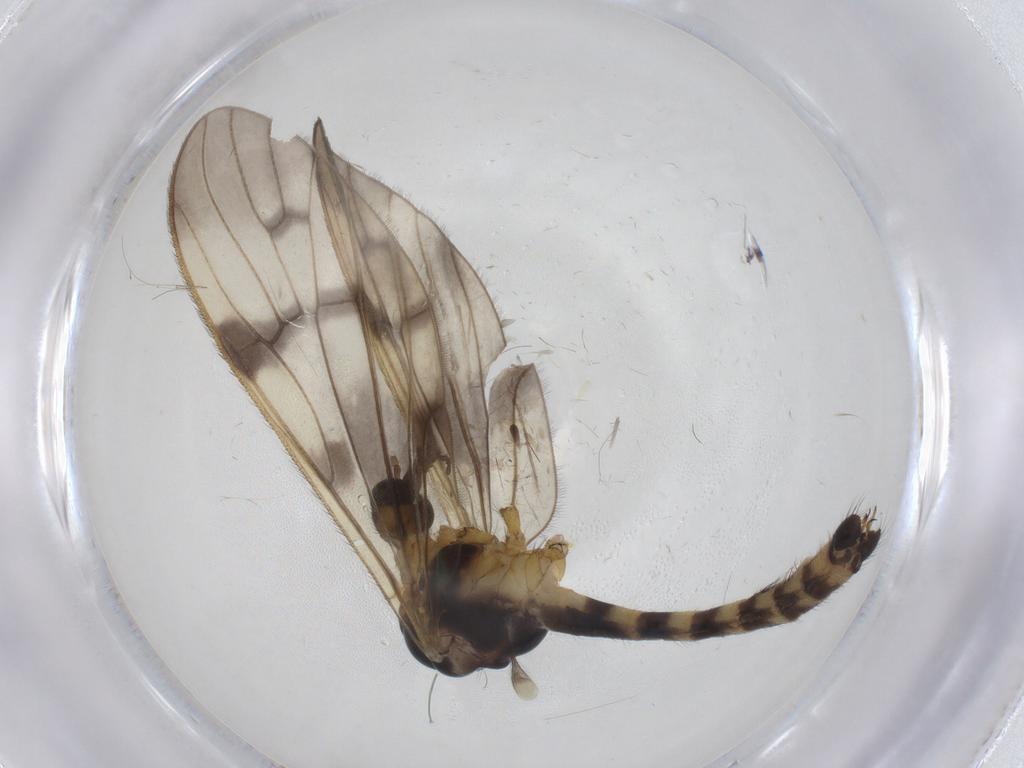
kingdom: Animalia
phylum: Arthropoda
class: Insecta
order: Diptera
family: Limoniidae
